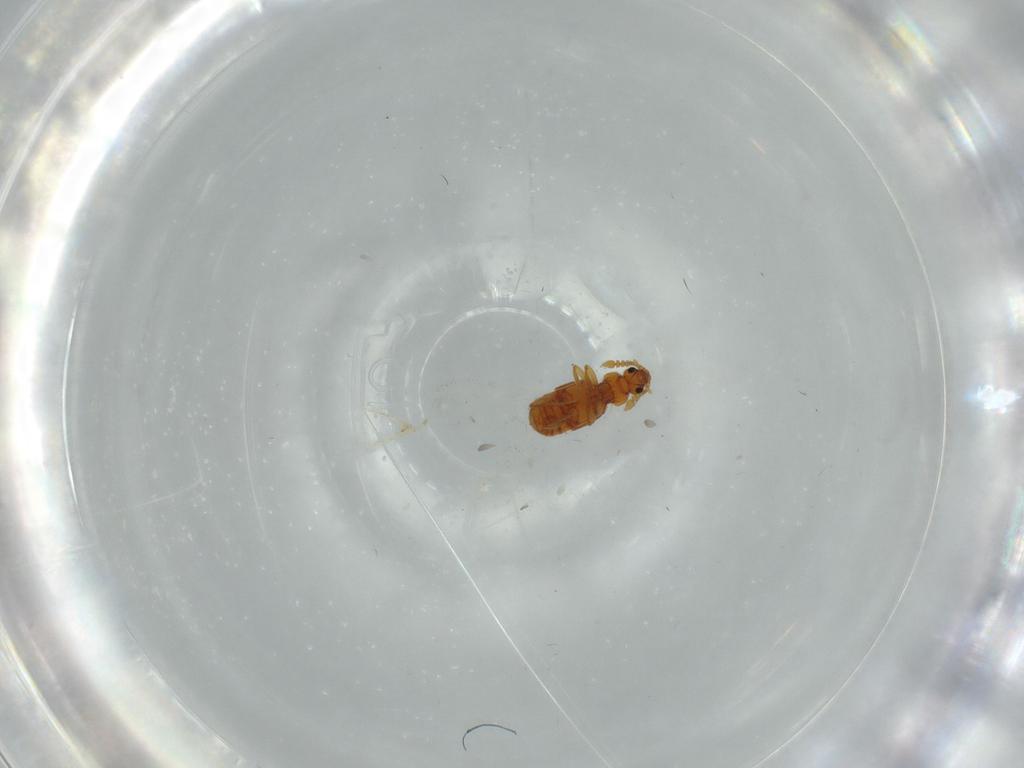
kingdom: Animalia
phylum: Arthropoda
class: Insecta
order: Coleoptera
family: Staphylinidae
